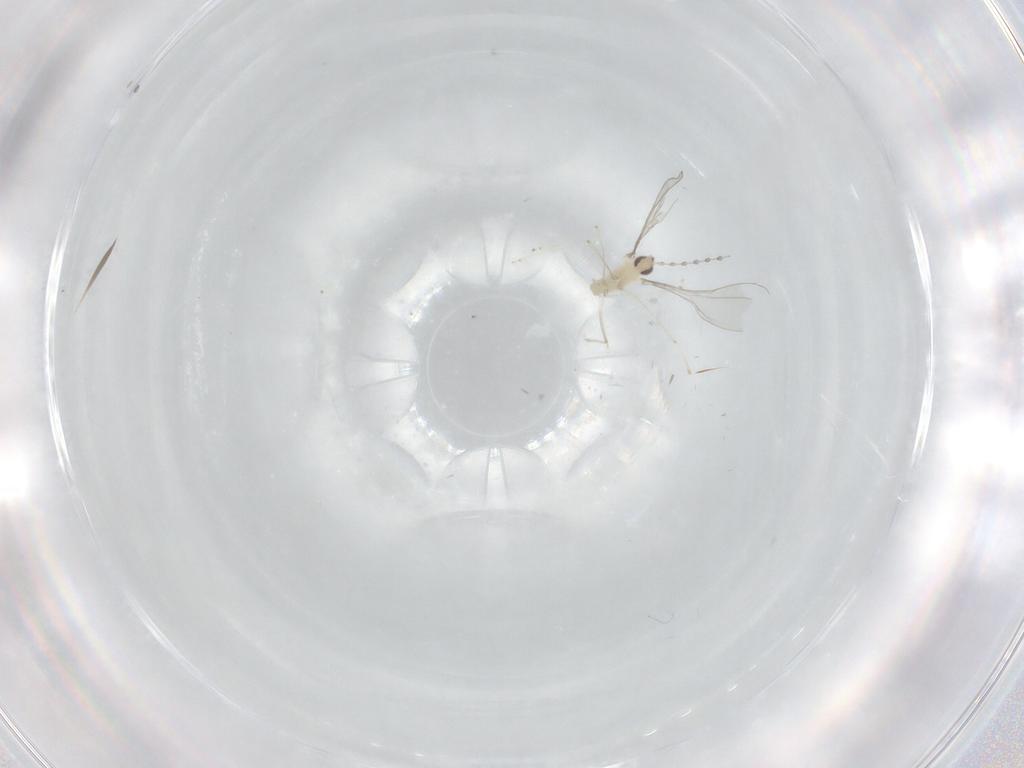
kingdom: Animalia
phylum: Arthropoda
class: Insecta
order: Diptera
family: Cecidomyiidae
